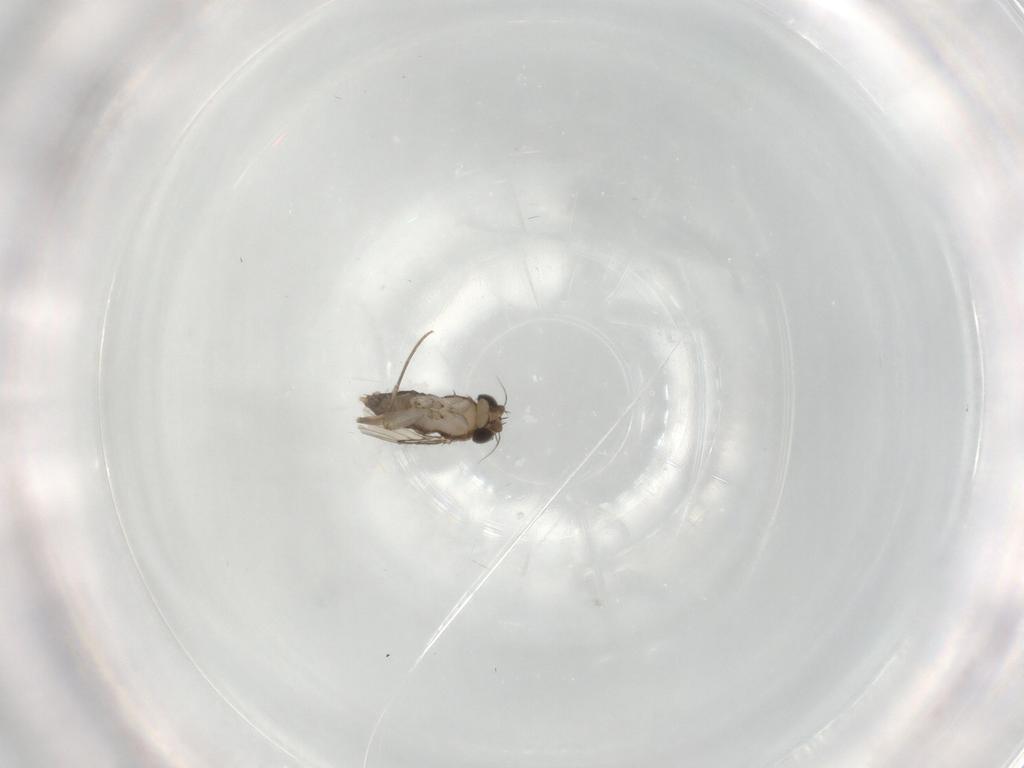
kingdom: Animalia
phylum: Arthropoda
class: Insecta
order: Diptera
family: Phoridae
